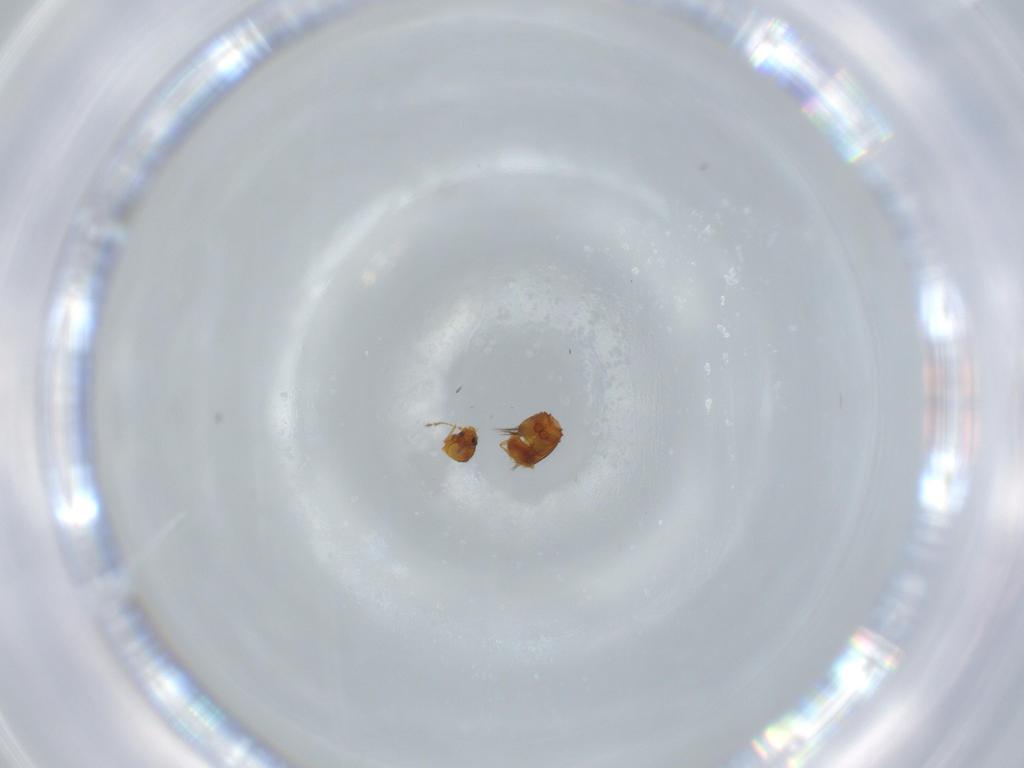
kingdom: Animalia
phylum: Arthropoda
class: Insecta
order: Coleoptera
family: Ptiliidae
